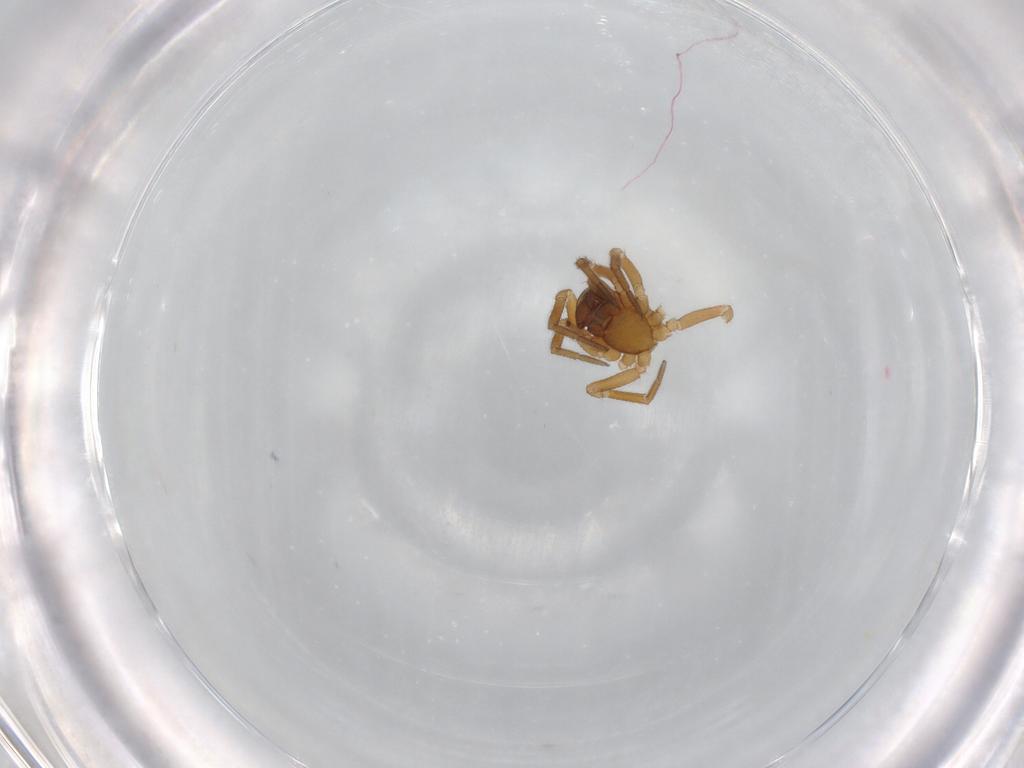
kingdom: Animalia
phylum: Arthropoda
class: Arachnida
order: Araneae
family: Linyphiidae
